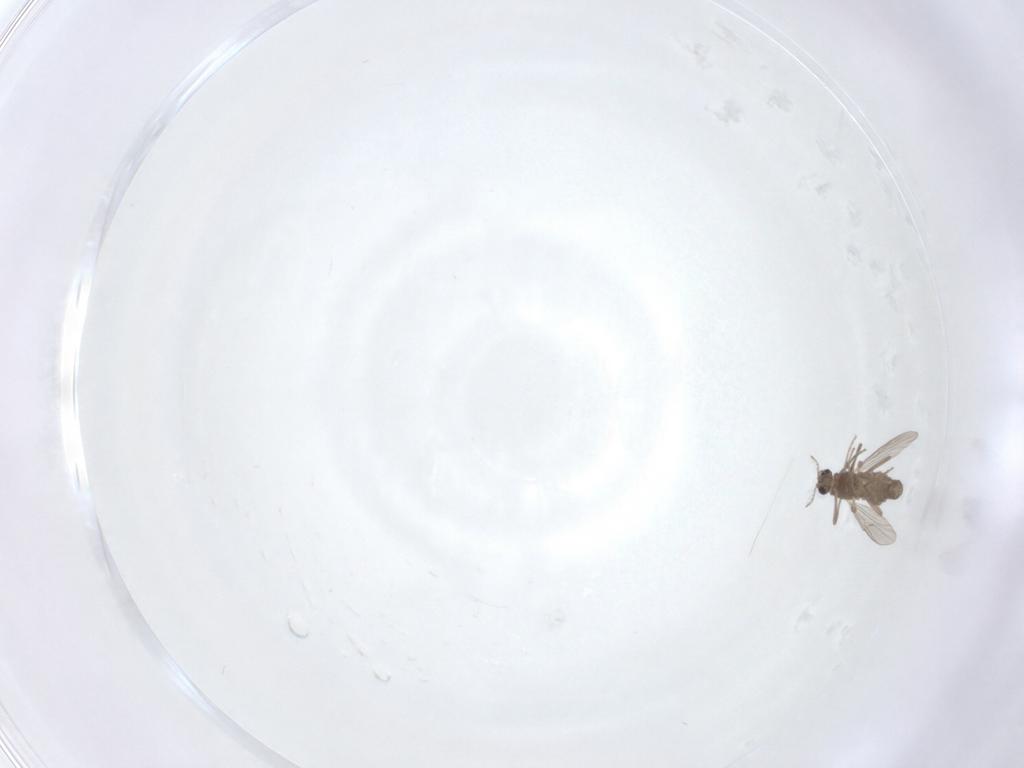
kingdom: Animalia
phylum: Arthropoda
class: Insecta
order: Diptera
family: Chironomidae
